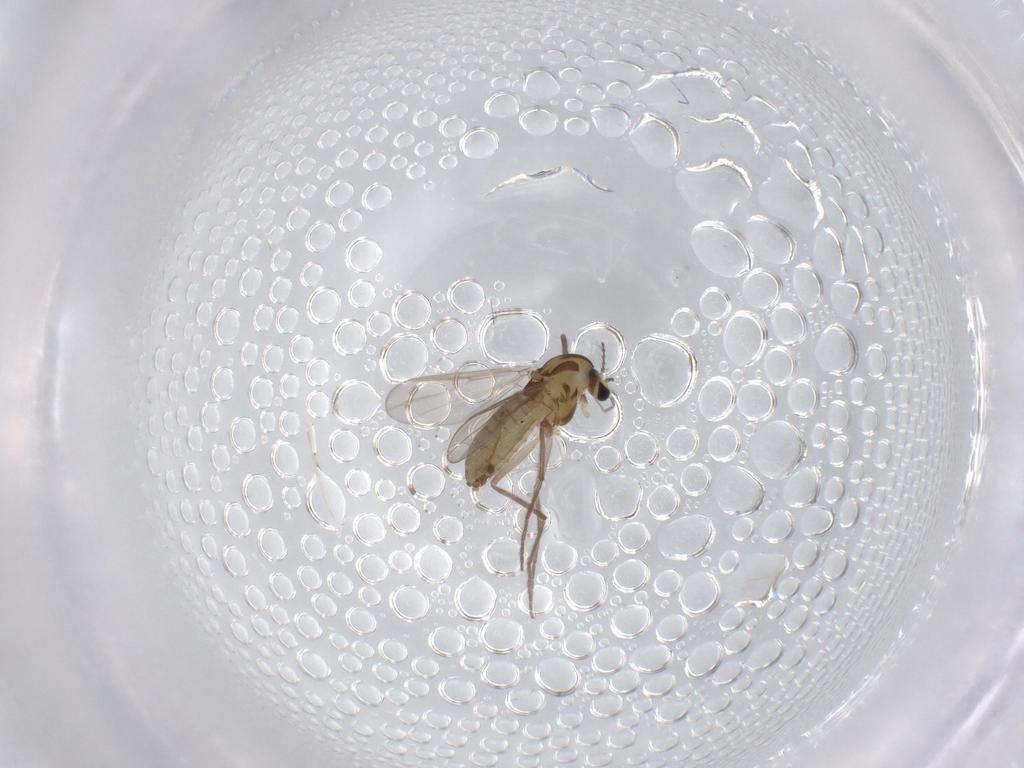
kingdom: Animalia
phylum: Arthropoda
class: Insecta
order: Diptera
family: Chironomidae
